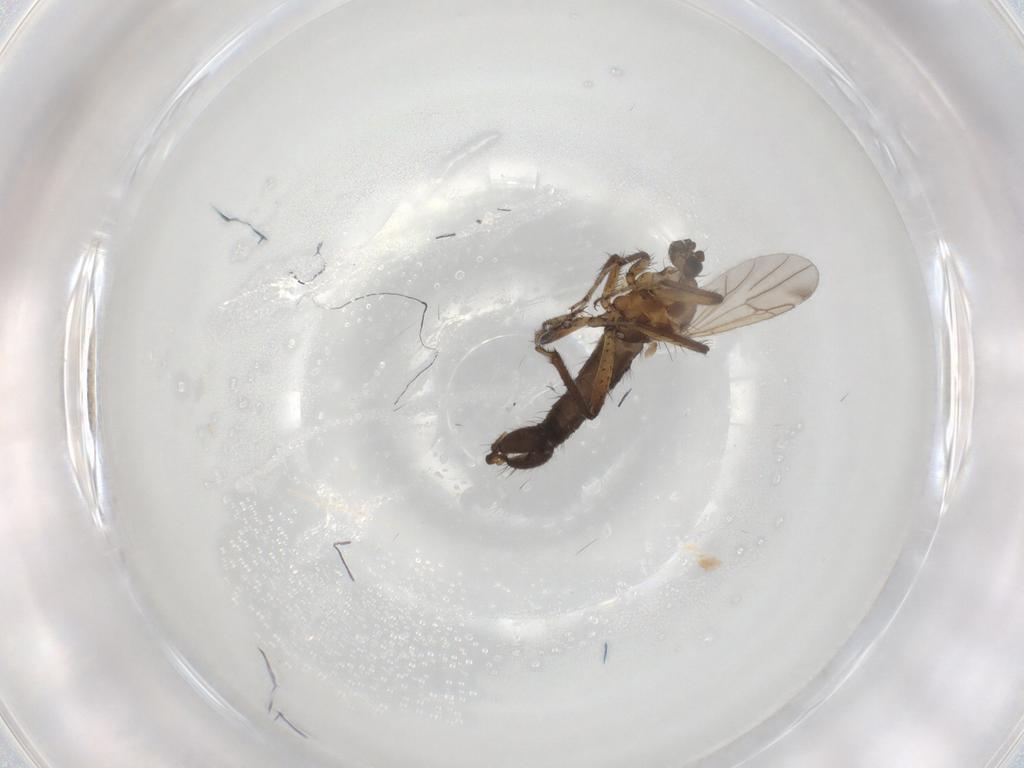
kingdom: Animalia
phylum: Arthropoda
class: Insecta
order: Diptera
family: Ceratopogonidae
